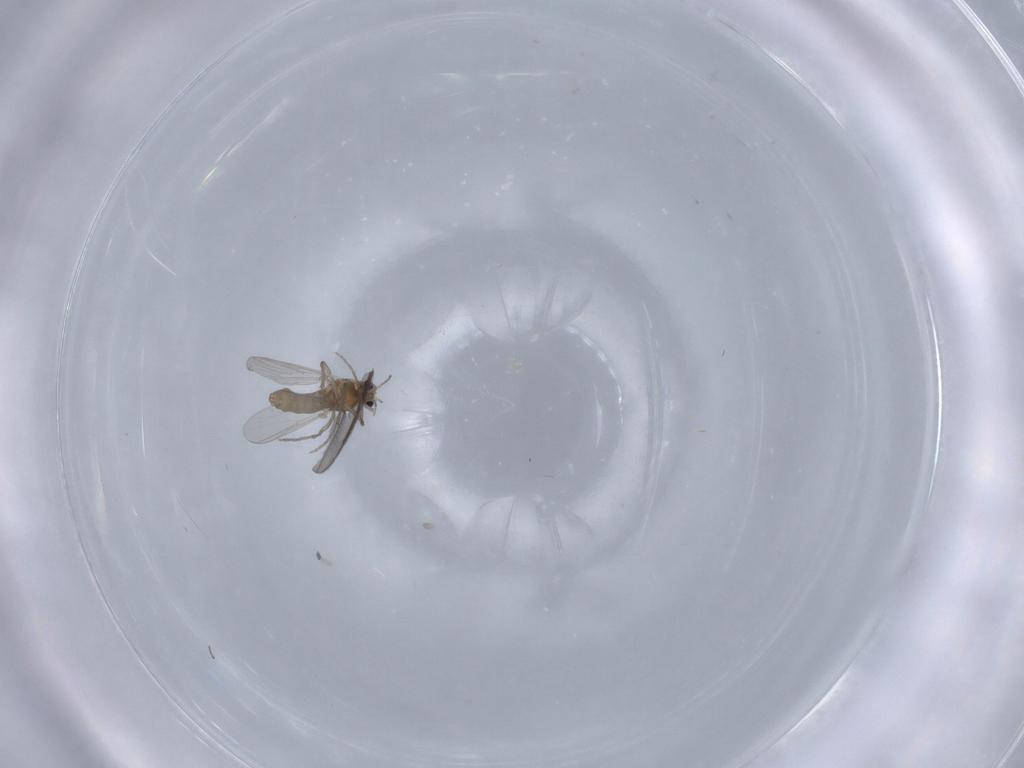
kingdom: Animalia
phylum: Arthropoda
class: Insecta
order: Diptera
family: Chironomidae
